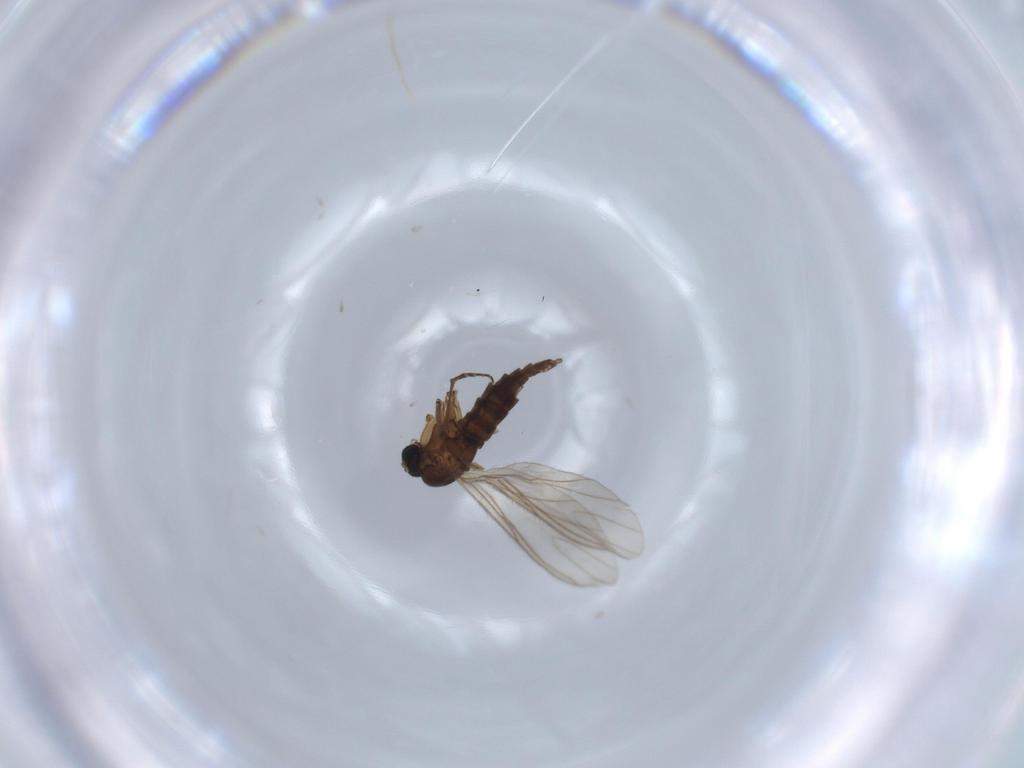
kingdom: Animalia
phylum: Arthropoda
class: Insecta
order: Diptera
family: Sciaridae
